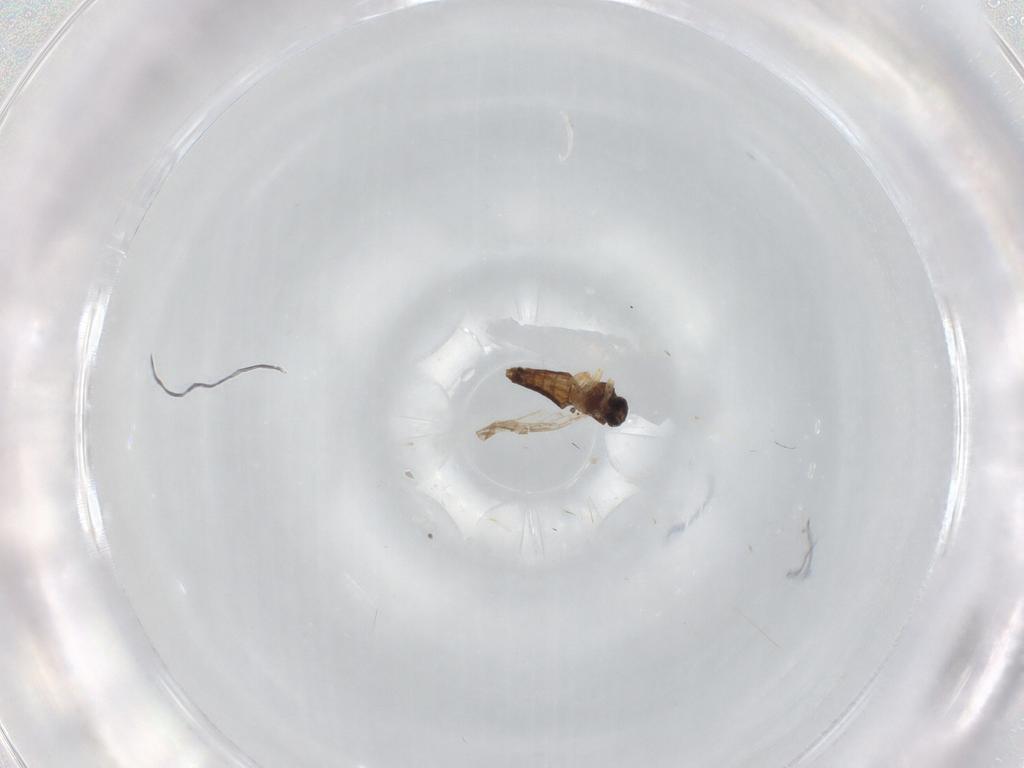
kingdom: Animalia
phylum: Arthropoda
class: Insecta
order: Diptera
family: Ceratopogonidae
